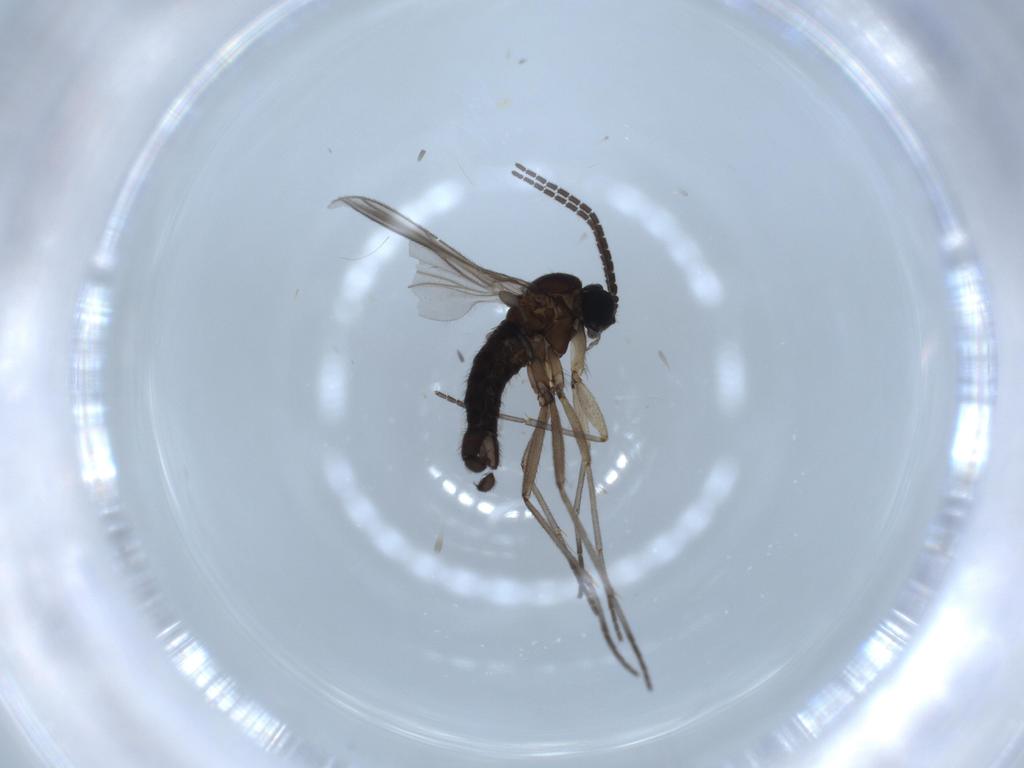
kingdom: Animalia
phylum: Arthropoda
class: Insecta
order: Diptera
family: Sciaridae
